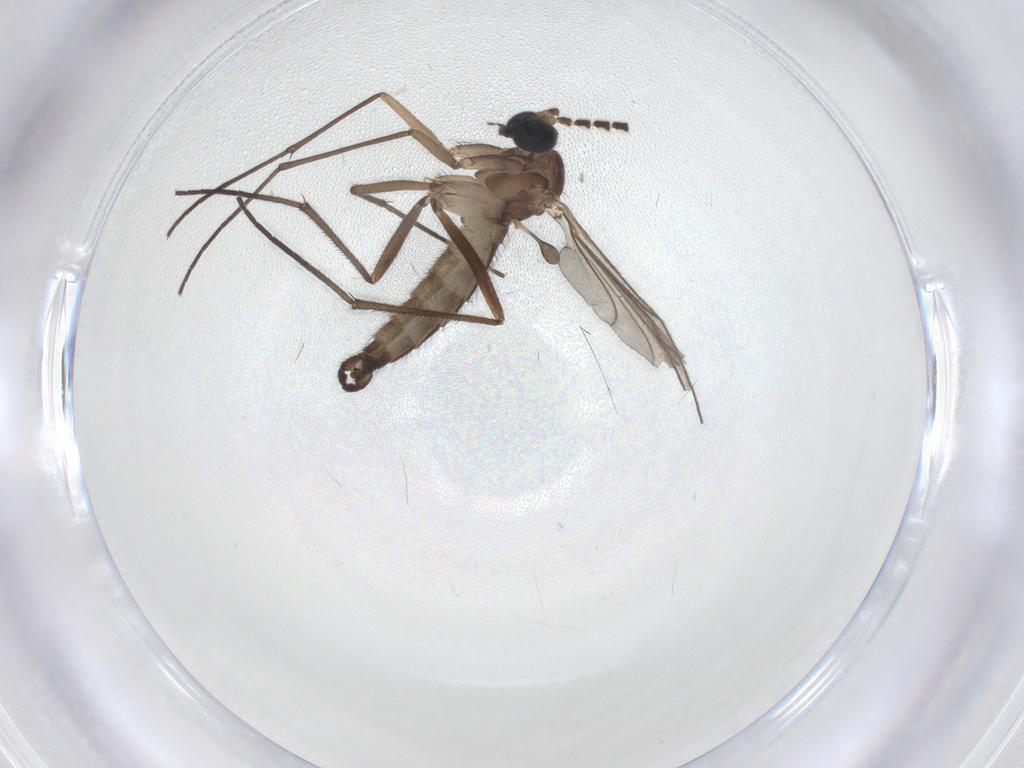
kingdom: Animalia
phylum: Arthropoda
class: Insecta
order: Diptera
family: Sciaridae
